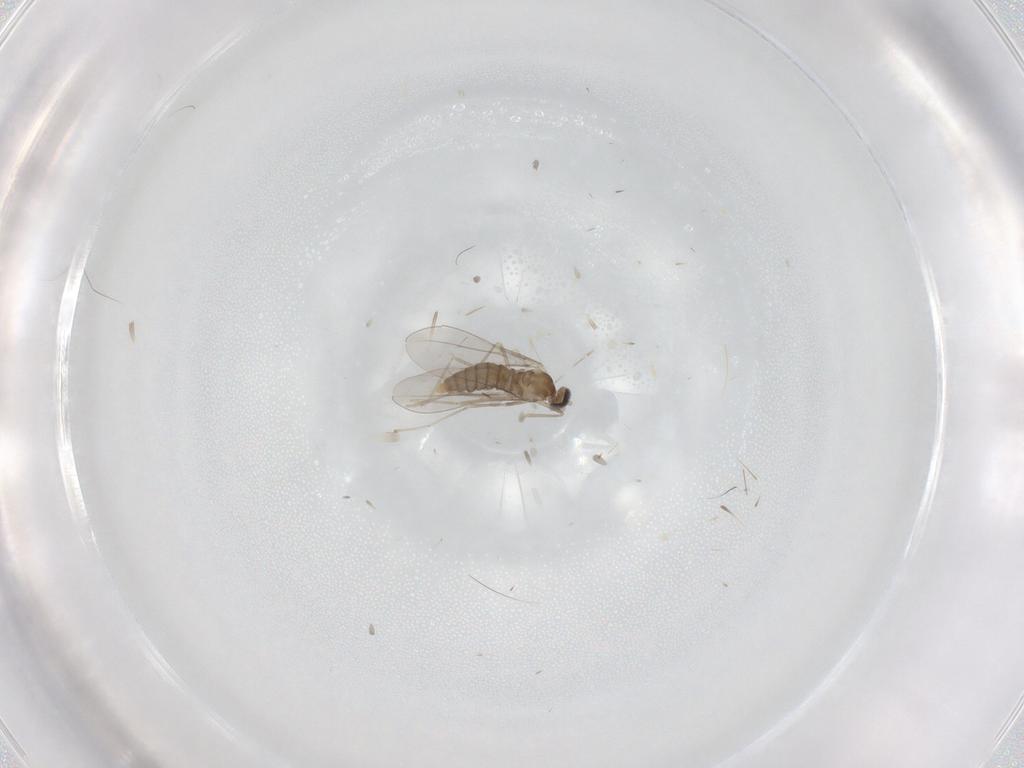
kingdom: Animalia
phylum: Arthropoda
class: Insecta
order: Diptera
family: Cecidomyiidae
